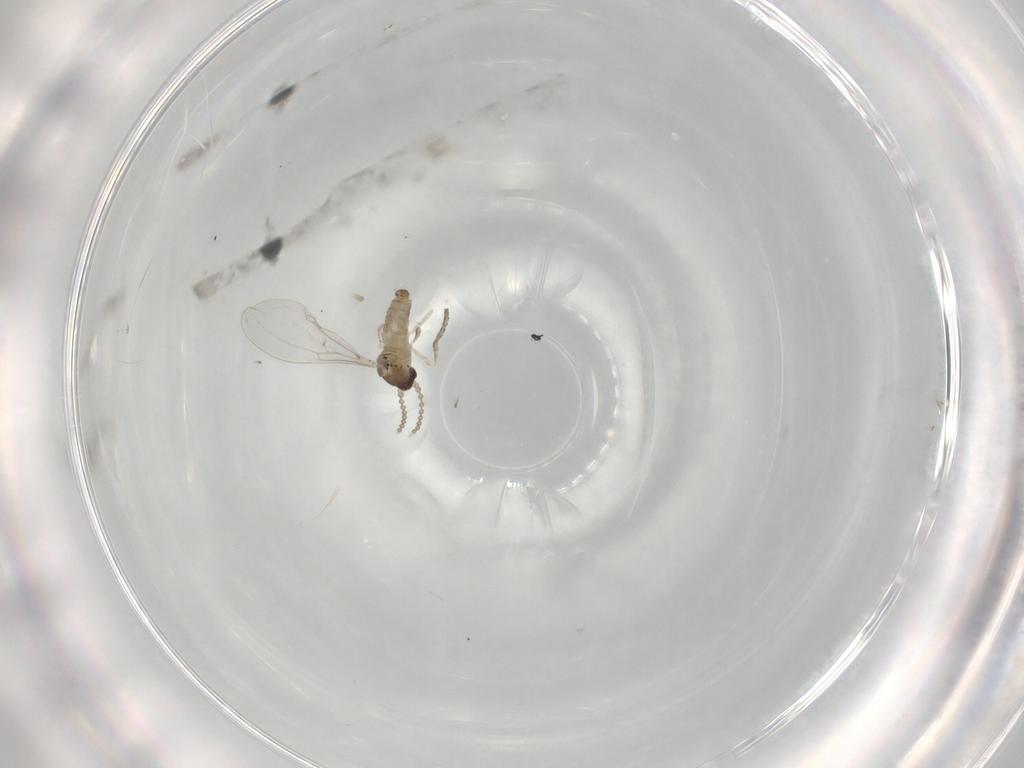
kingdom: Animalia
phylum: Arthropoda
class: Insecta
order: Diptera
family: Cecidomyiidae
